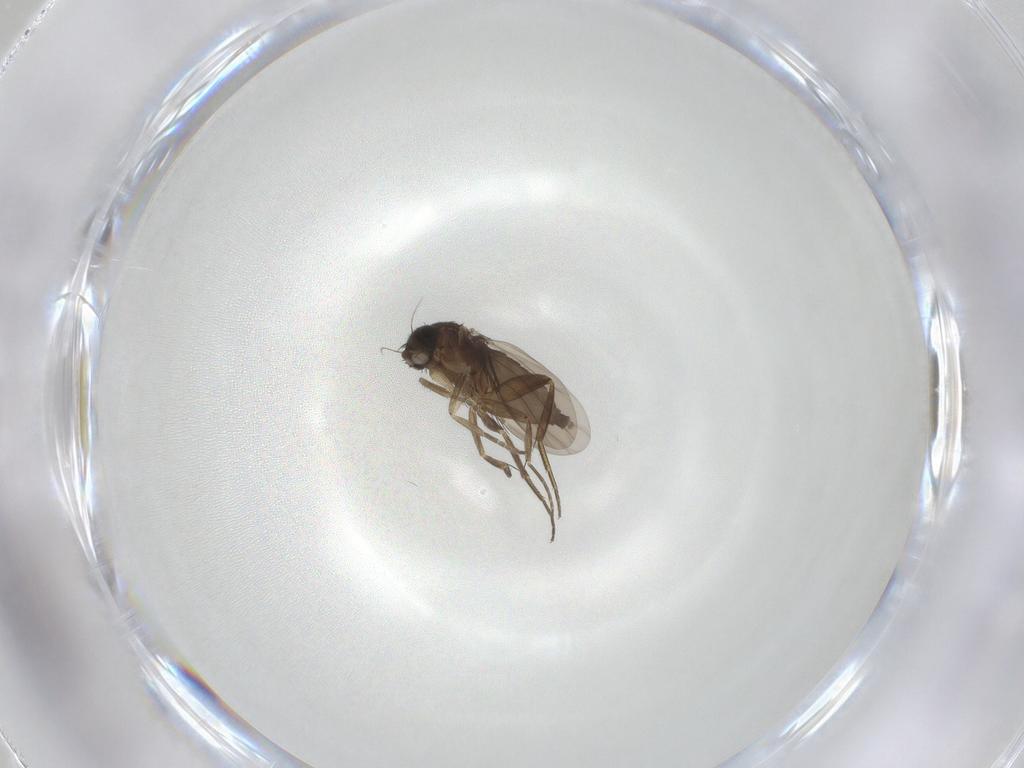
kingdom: Animalia
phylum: Arthropoda
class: Insecta
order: Diptera
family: Phoridae
